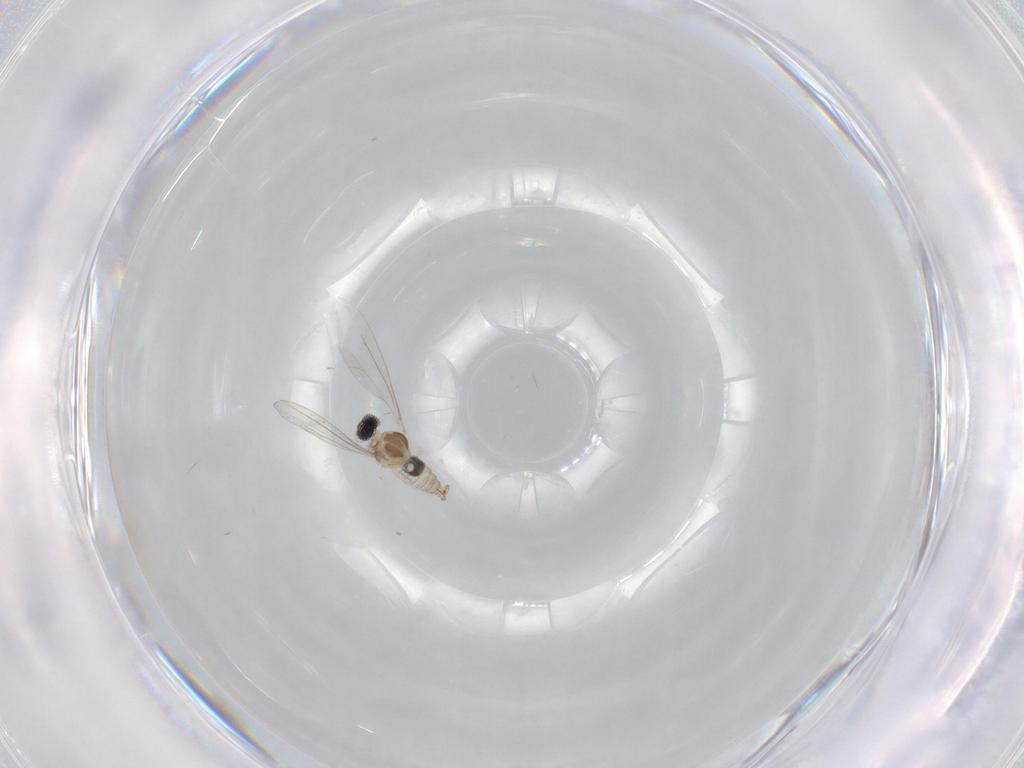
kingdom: Animalia
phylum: Arthropoda
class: Insecta
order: Diptera
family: Cecidomyiidae
